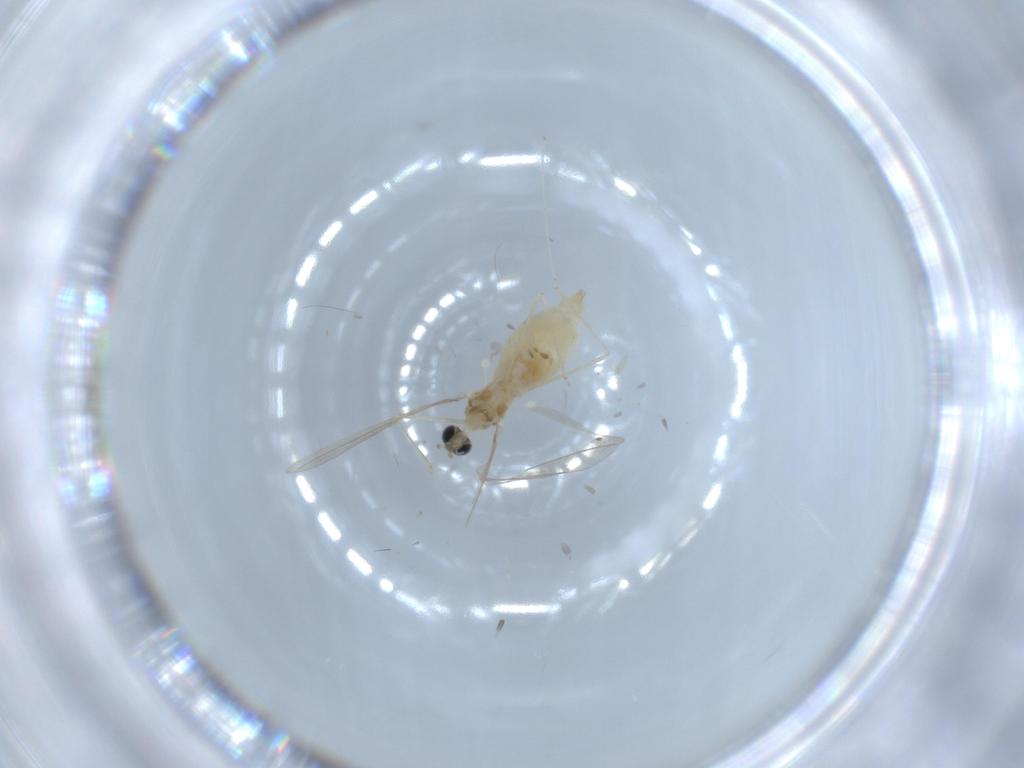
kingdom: Animalia
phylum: Arthropoda
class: Insecta
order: Diptera
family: Cecidomyiidae
